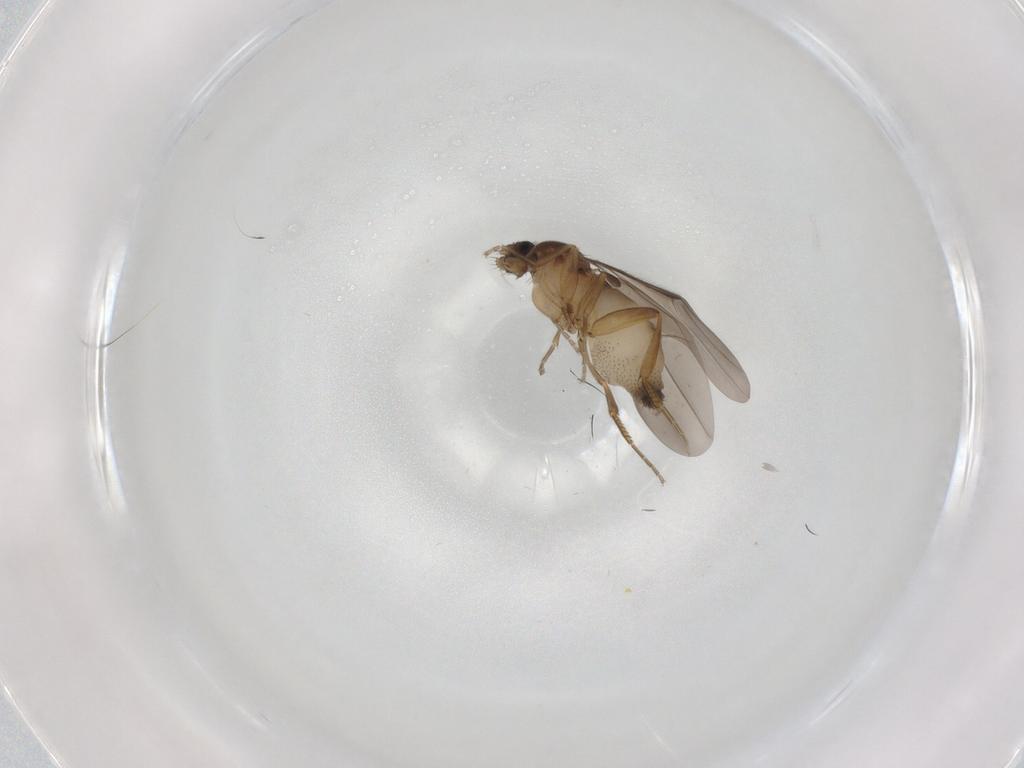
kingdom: Animalia
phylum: Arthropoda
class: Insecta
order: Diptera
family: Phoridae
